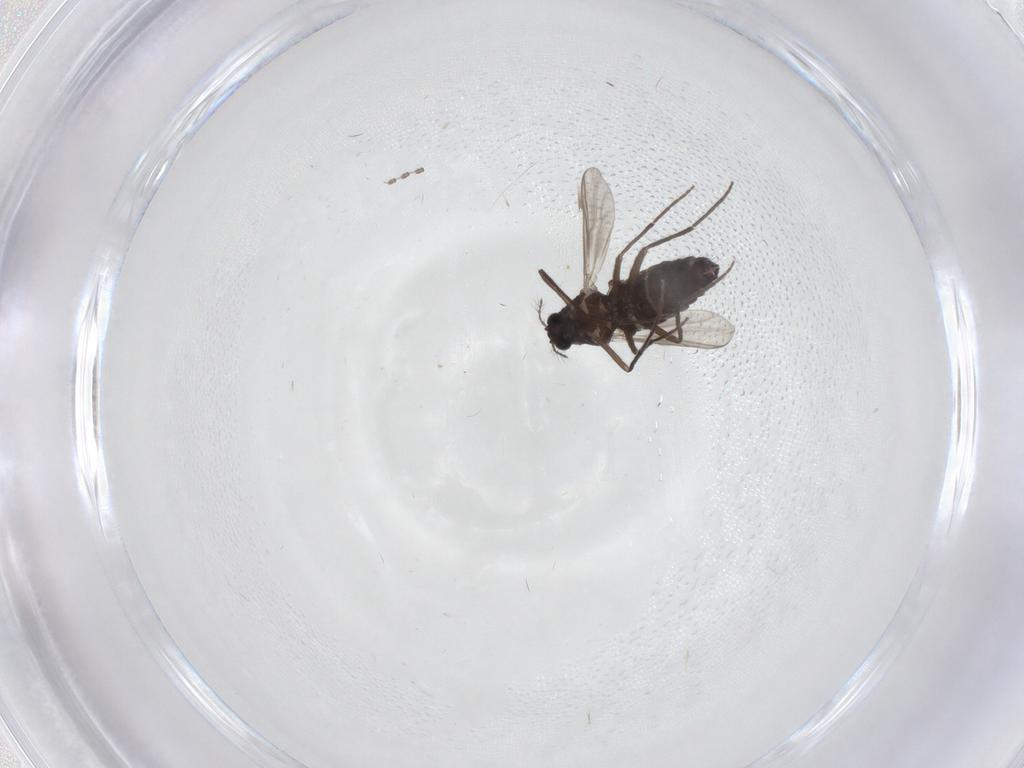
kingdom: Animalia
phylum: Arthropoda
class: Insecta
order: Diptera
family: Chironomidae
